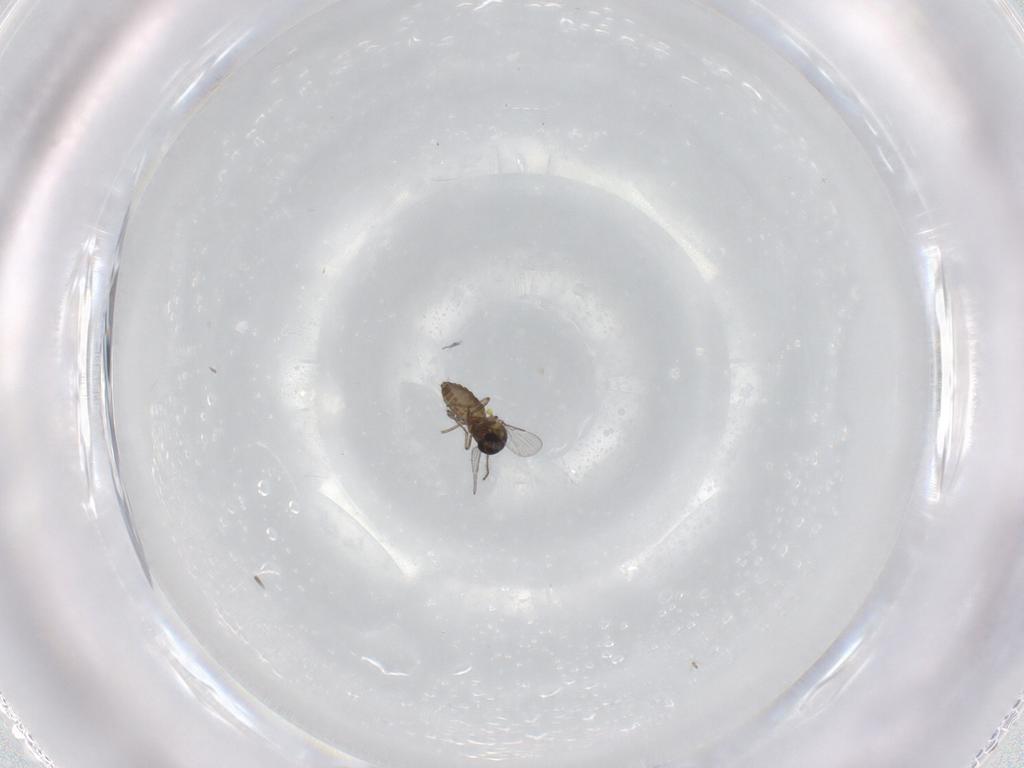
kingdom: Animalia
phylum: Arthropoda
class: Insecta
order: Diptera
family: Ceratopogonidae
